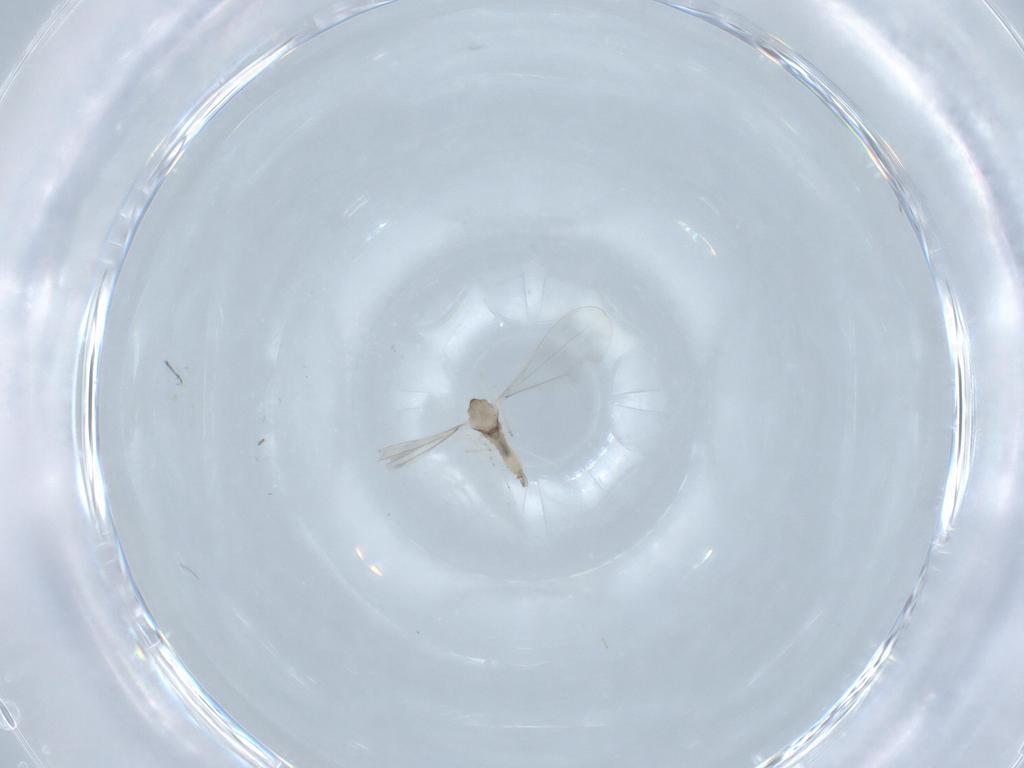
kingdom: Animalia
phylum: Arthropoda
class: Insecta
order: Diptera
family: Cecidomyiidae
